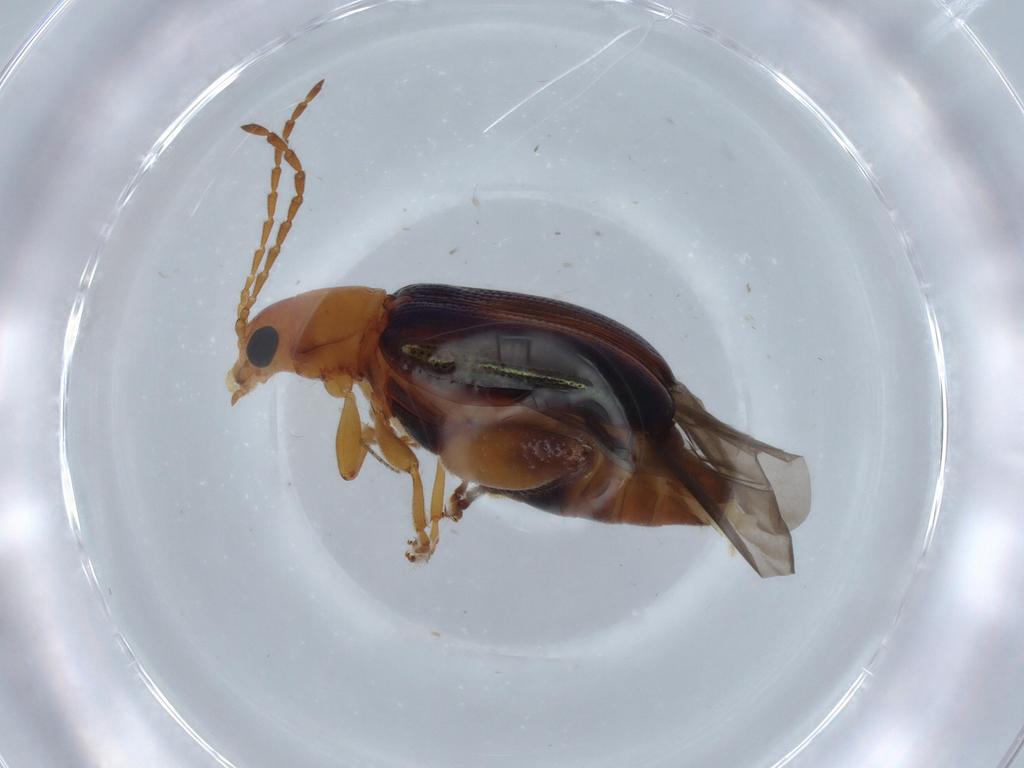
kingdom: Animalia
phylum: Arthropoda
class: Insecta
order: Coleoptera
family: Chrysomelidae
